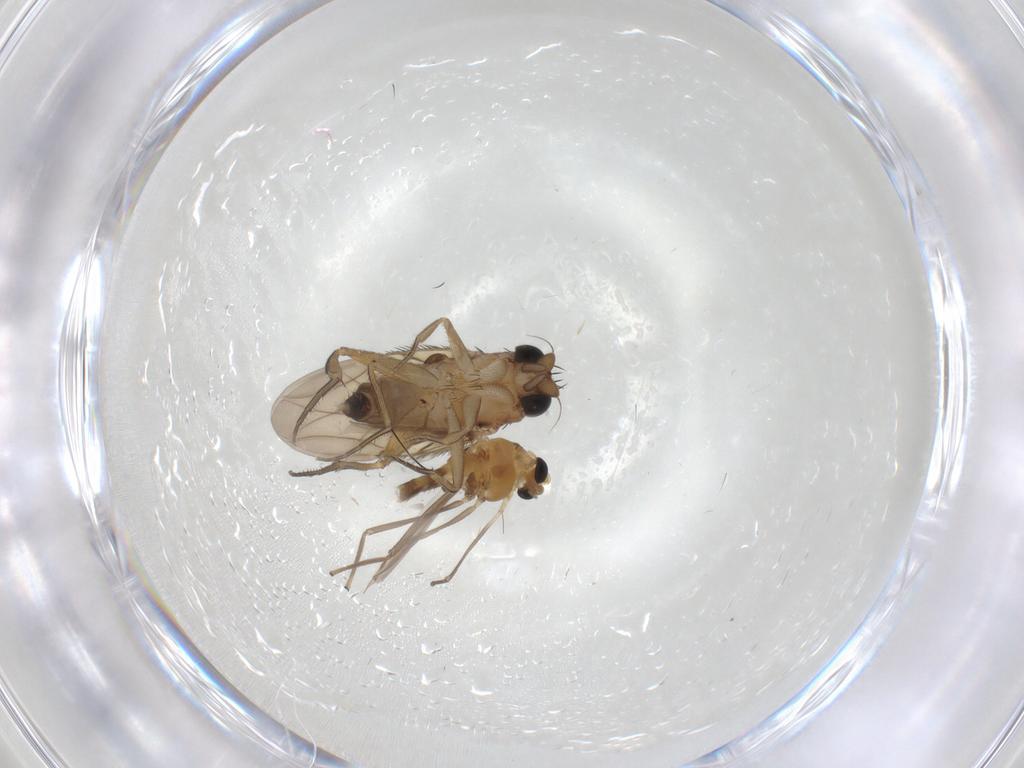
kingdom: Animalia
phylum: Arthropoda
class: Insecta
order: Diptera
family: Chironomidae
